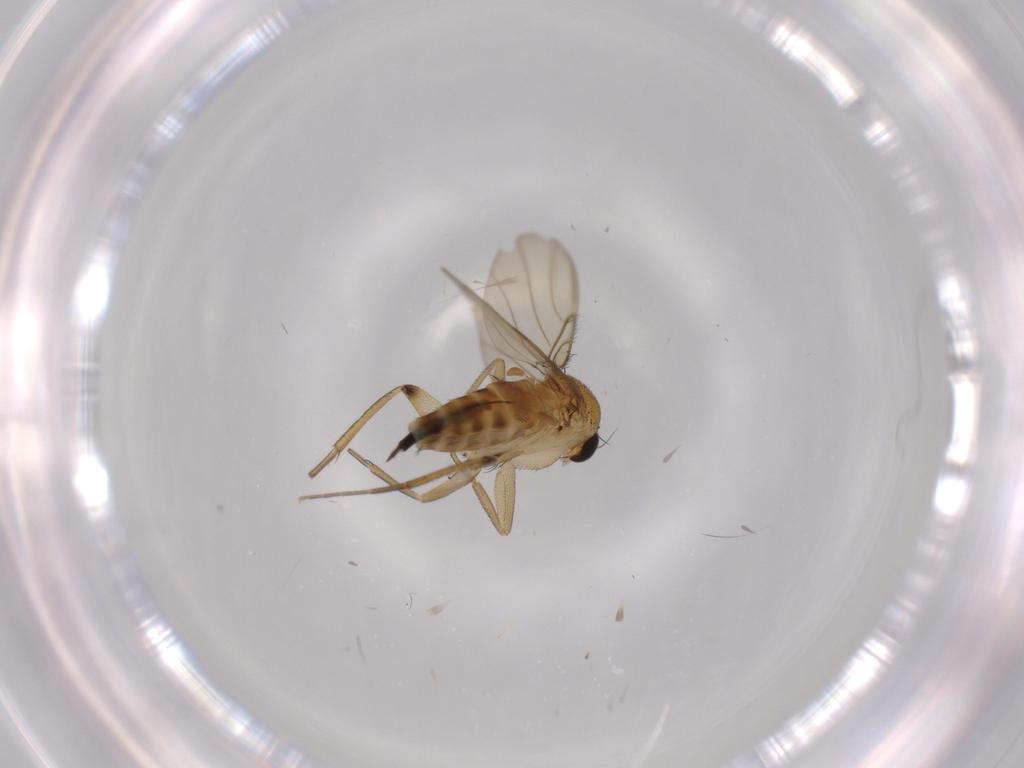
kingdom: Animalia
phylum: Arthropoda
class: Insecta
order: Diptera
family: Phoridae
